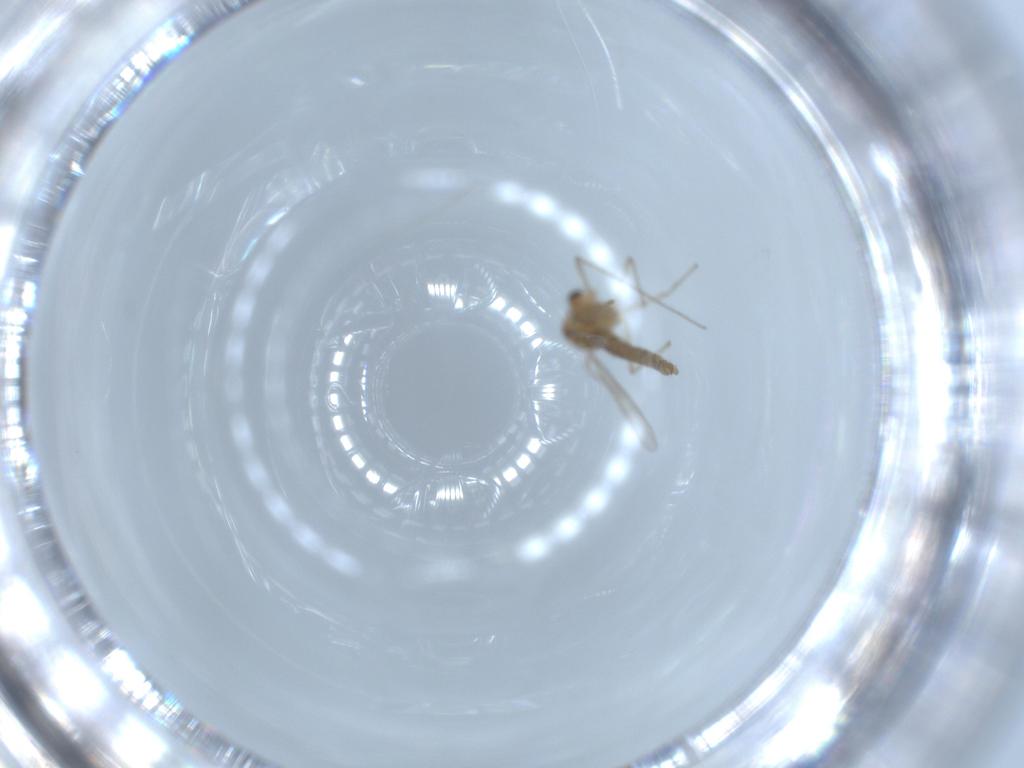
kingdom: Animalia
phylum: Arthropoda
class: Insecta
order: Diptera
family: Chironomidae
